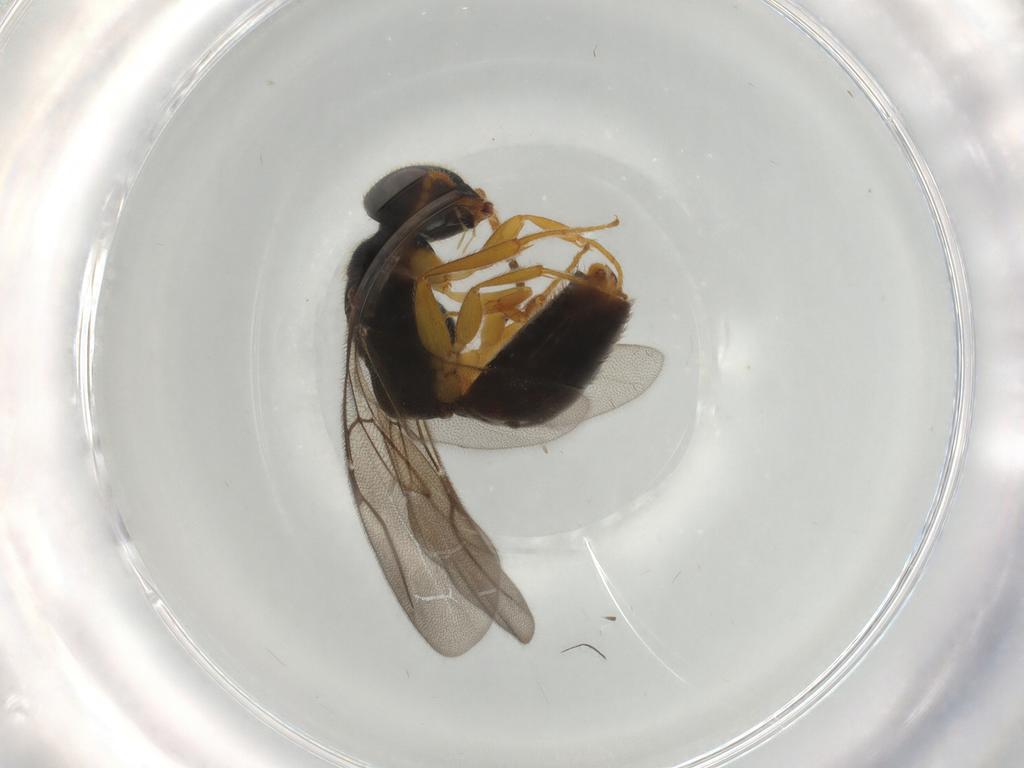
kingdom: Animalia
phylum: Arthropoda
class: Insecta
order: Hymenoptera
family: Bethylidae
